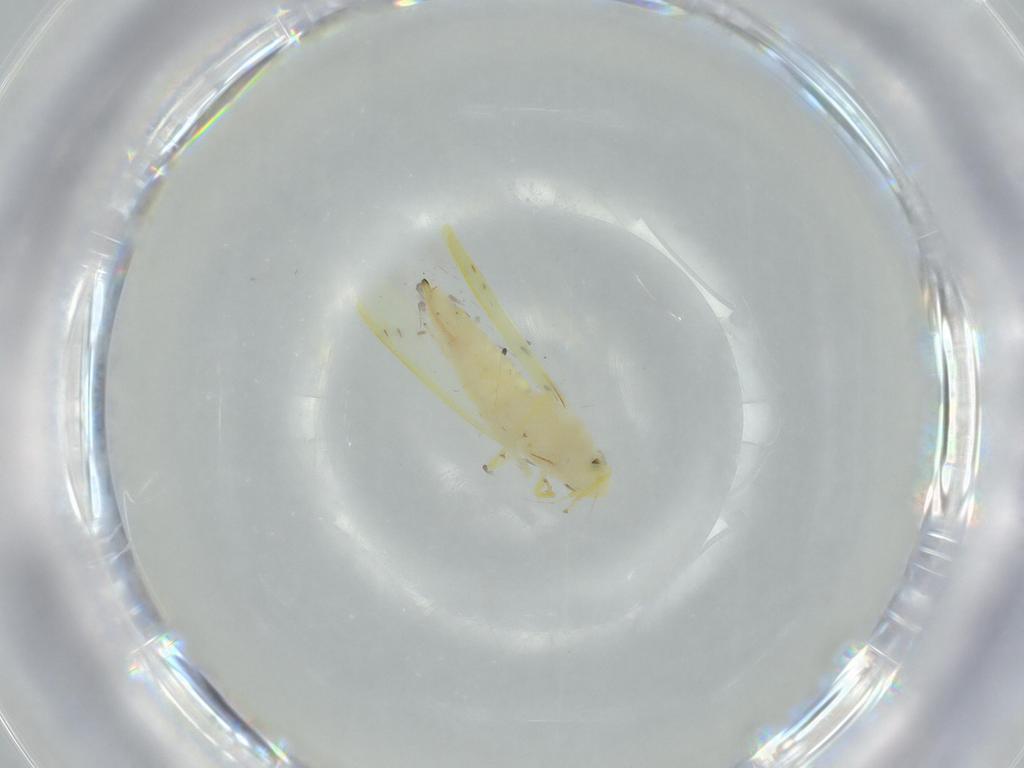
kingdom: Animalia
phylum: Arthropoda
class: Insecta
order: Hemiptera
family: Cicadellidae
